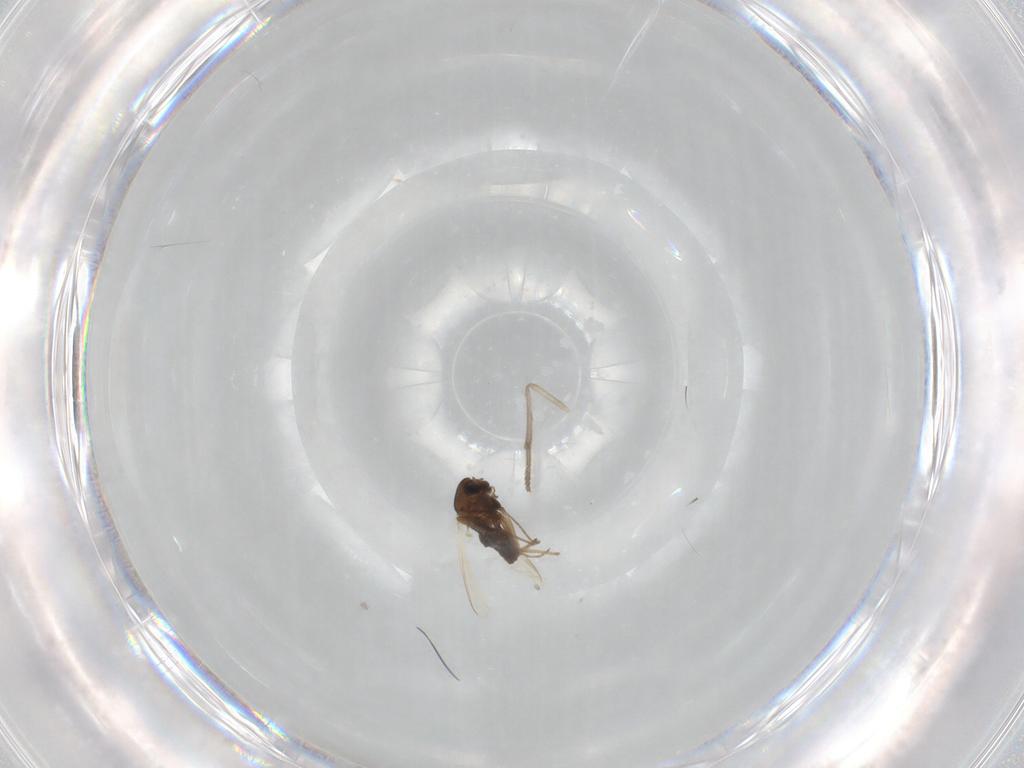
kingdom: Animalia
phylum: Arthropoda
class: Insecta
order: Diptera
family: Chironomidae
